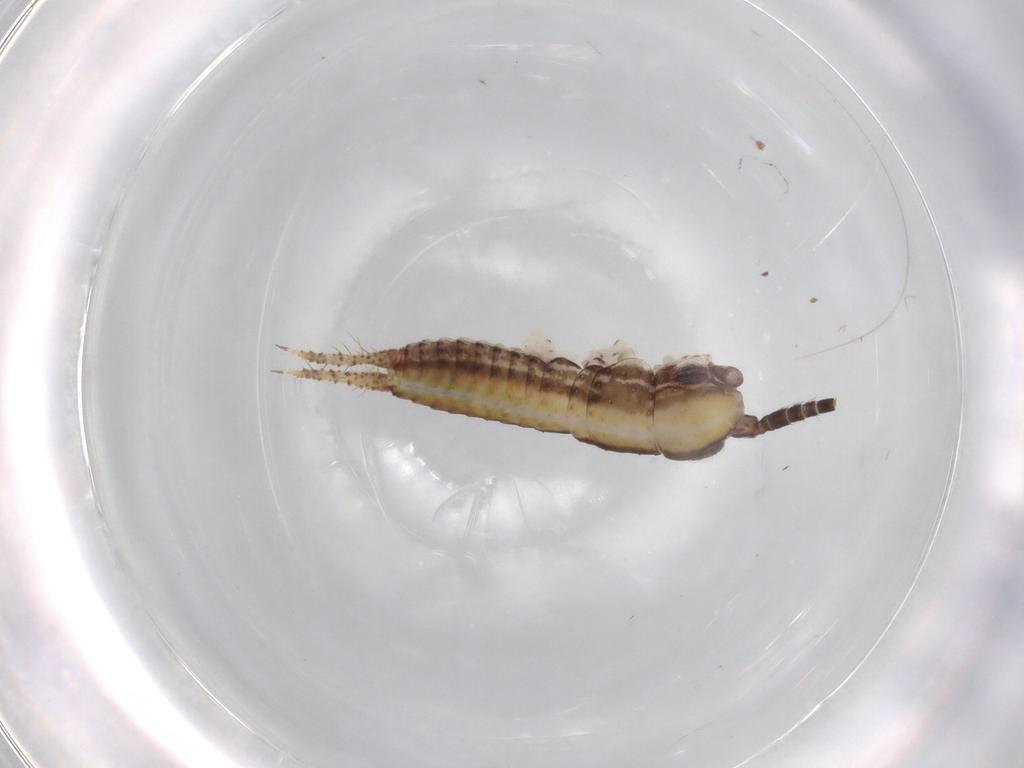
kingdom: Animalia
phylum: Arthropoda
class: Insecta
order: Orthoptera
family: Gryllidae
